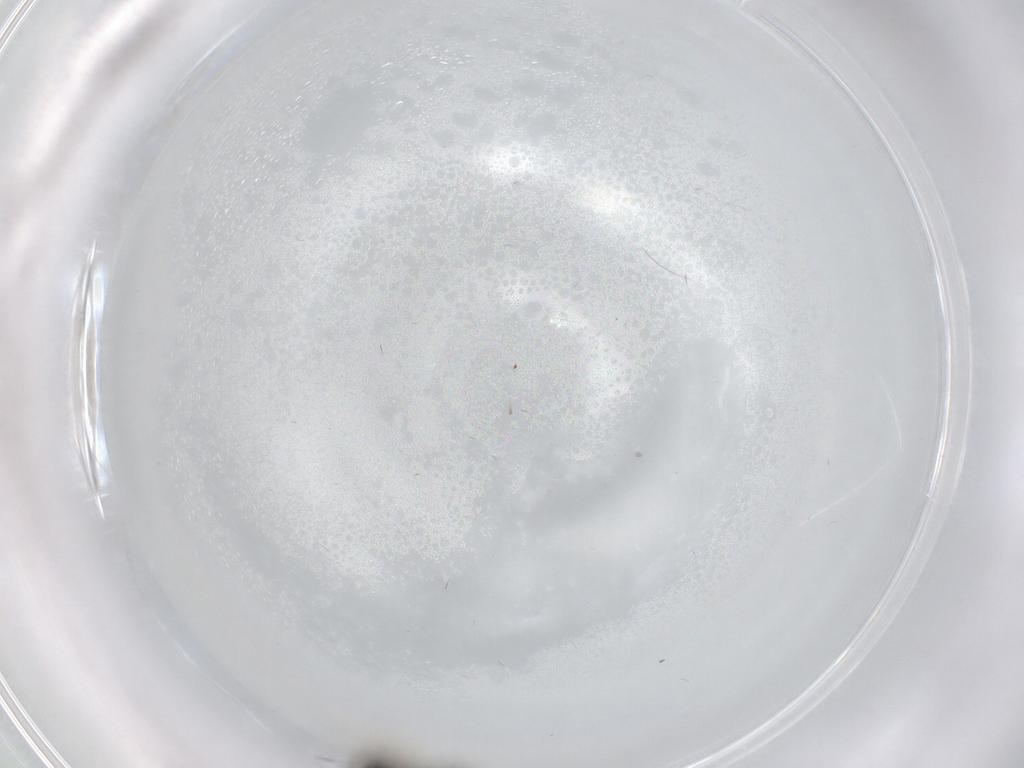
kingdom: Animalia
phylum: Arthropoda
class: Insecta
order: Hymenoptera
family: Scelionidae
